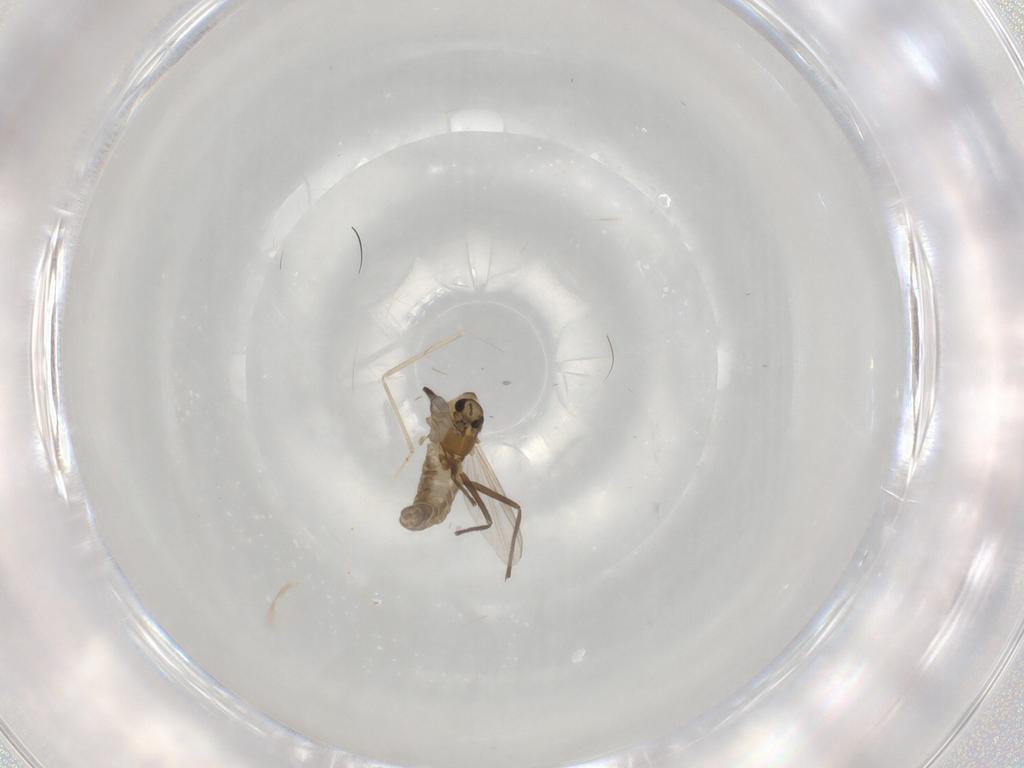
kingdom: Animalia
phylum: Arthropoda
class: Insecta
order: Diptera
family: Chironomidae
